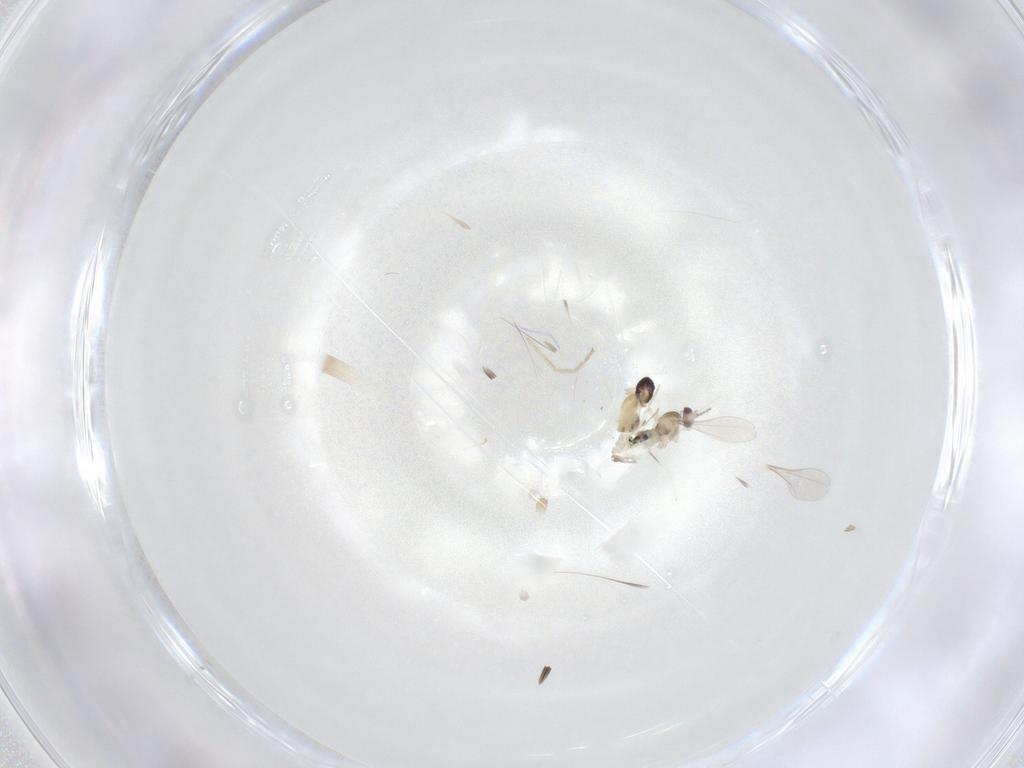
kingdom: Animalia
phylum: Arthropoda
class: Insecta
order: Diptera
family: Cecidomyiidae
